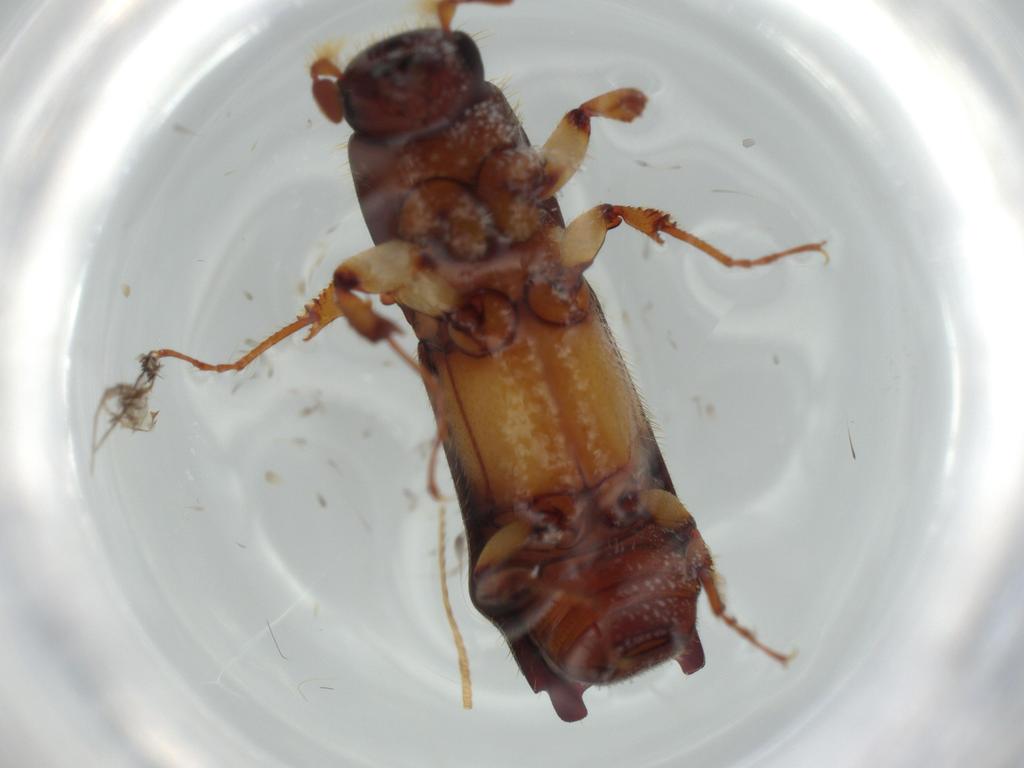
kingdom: Animalia
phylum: Arthropoda
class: Insecta
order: Coleoptera
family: Curculionidae
